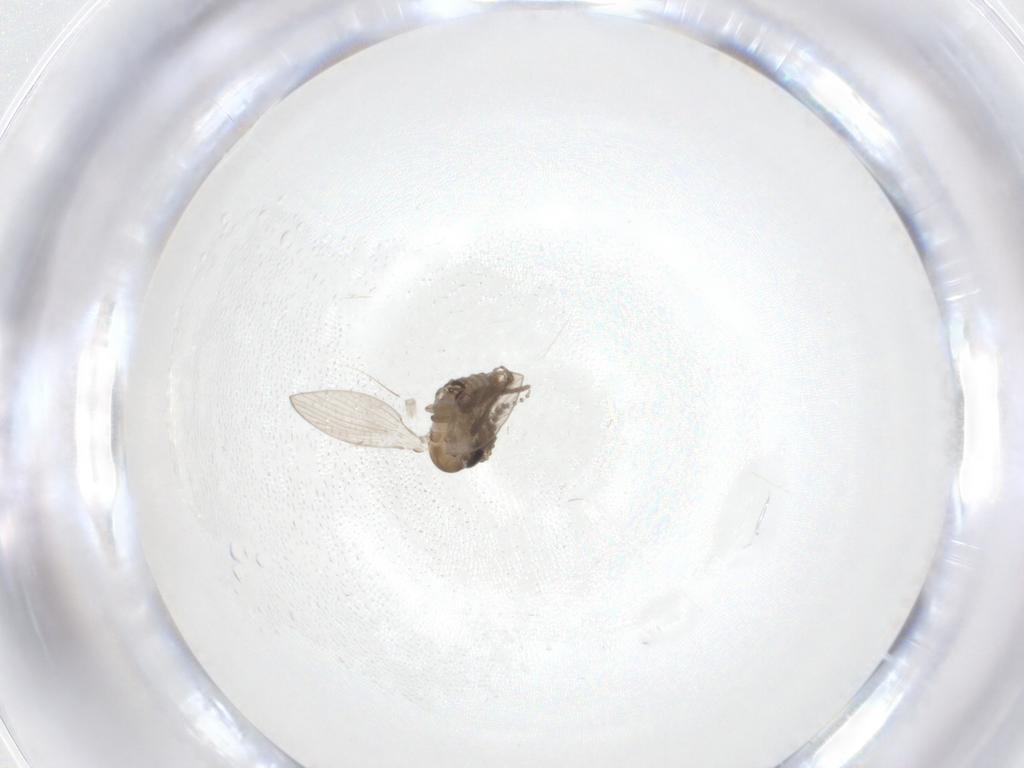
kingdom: Animalia
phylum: Arthropoda
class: Insecta
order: Diptera
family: Psychodidae
